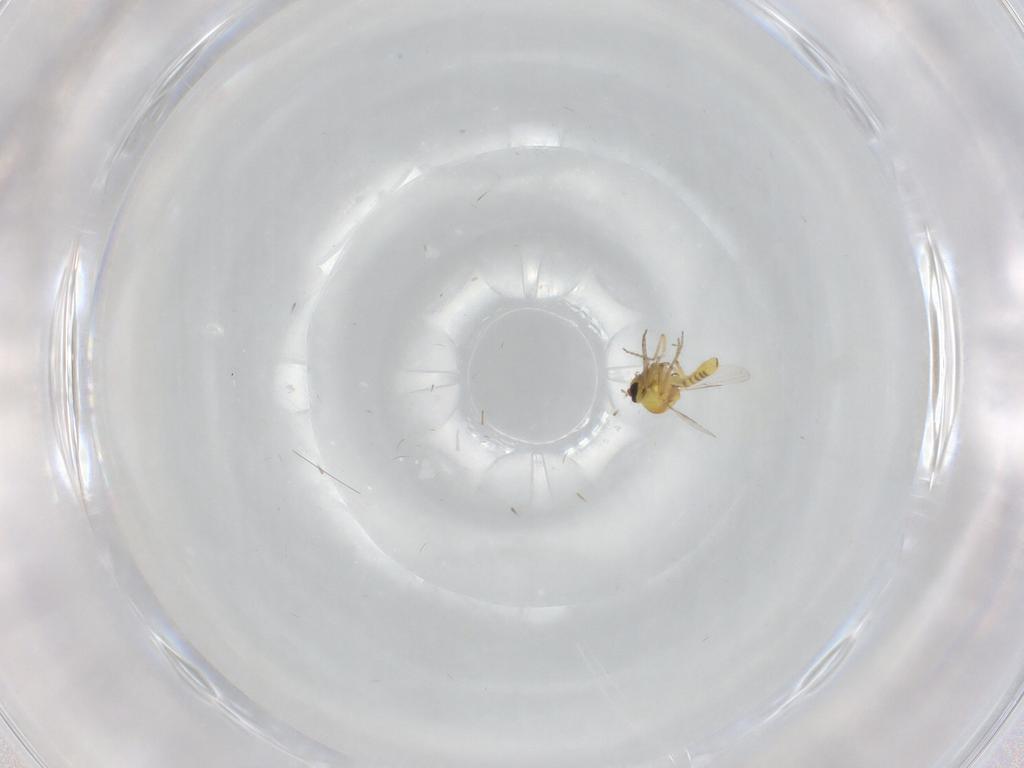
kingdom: Animalia
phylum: Arthropoda
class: Insecta
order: Diptera
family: Ceratopogonidae
